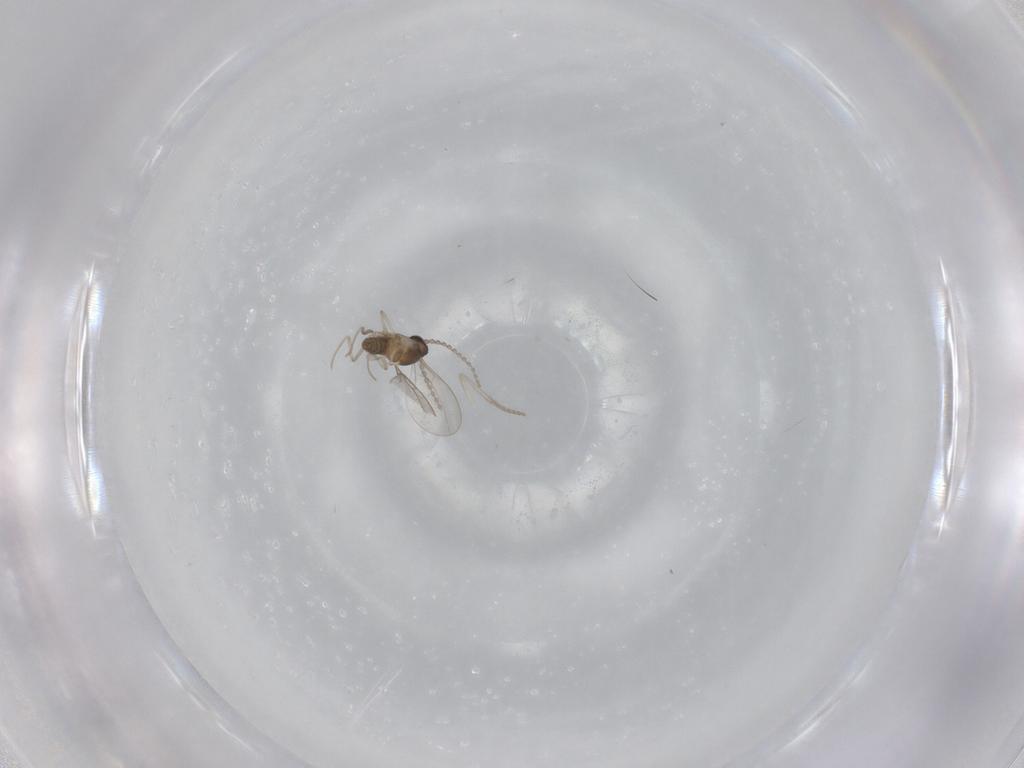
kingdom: Animalia
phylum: Arthropoda
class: Insecta
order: Diptera
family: Cecidomyiidae
